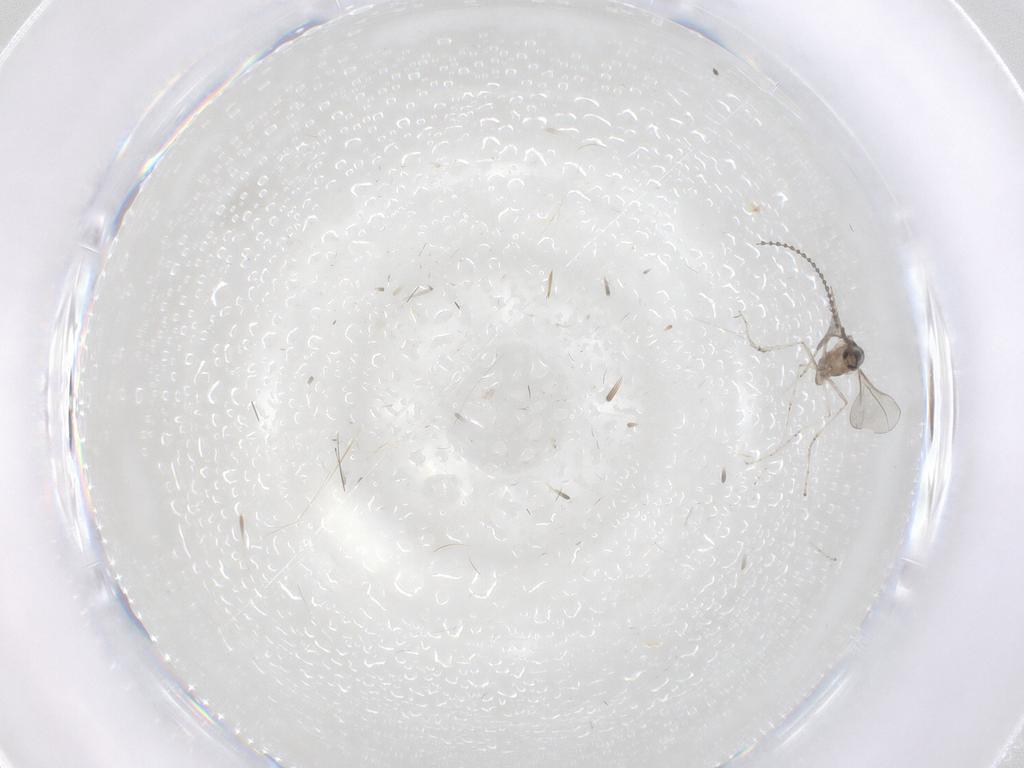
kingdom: Animalia
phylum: Arthropoda
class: Insecta
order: Diptera
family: Cecidomyiidae
